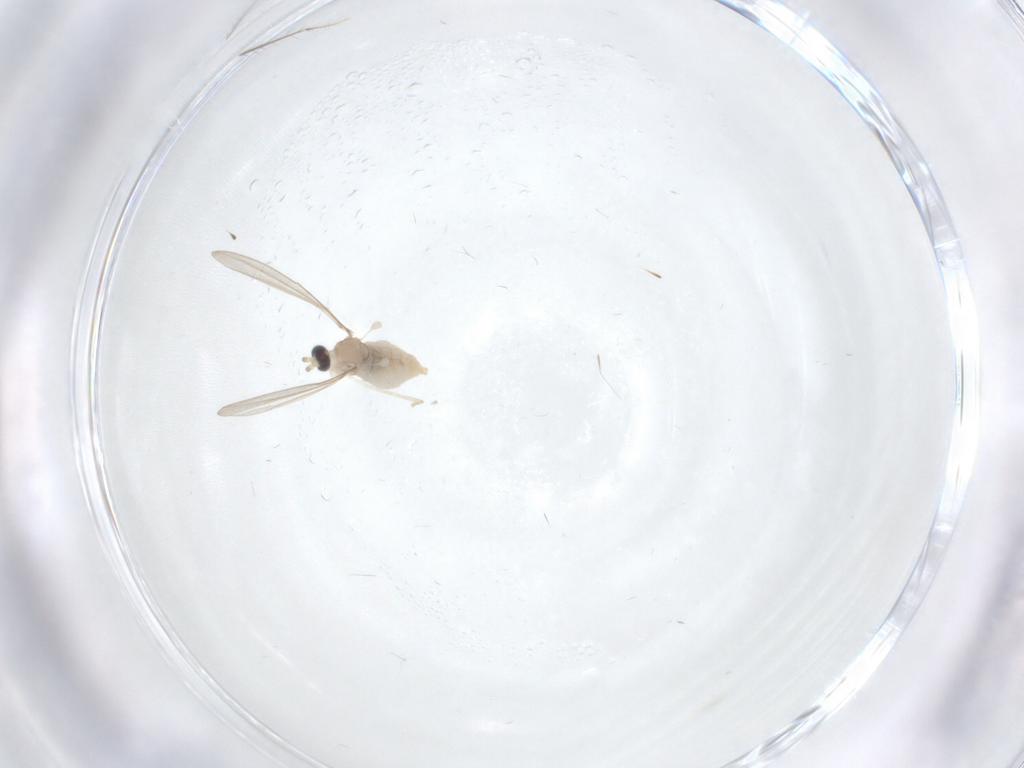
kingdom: Animalia
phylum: Arthropoda
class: Insecta
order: Diptera
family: Cecidomyiidae
